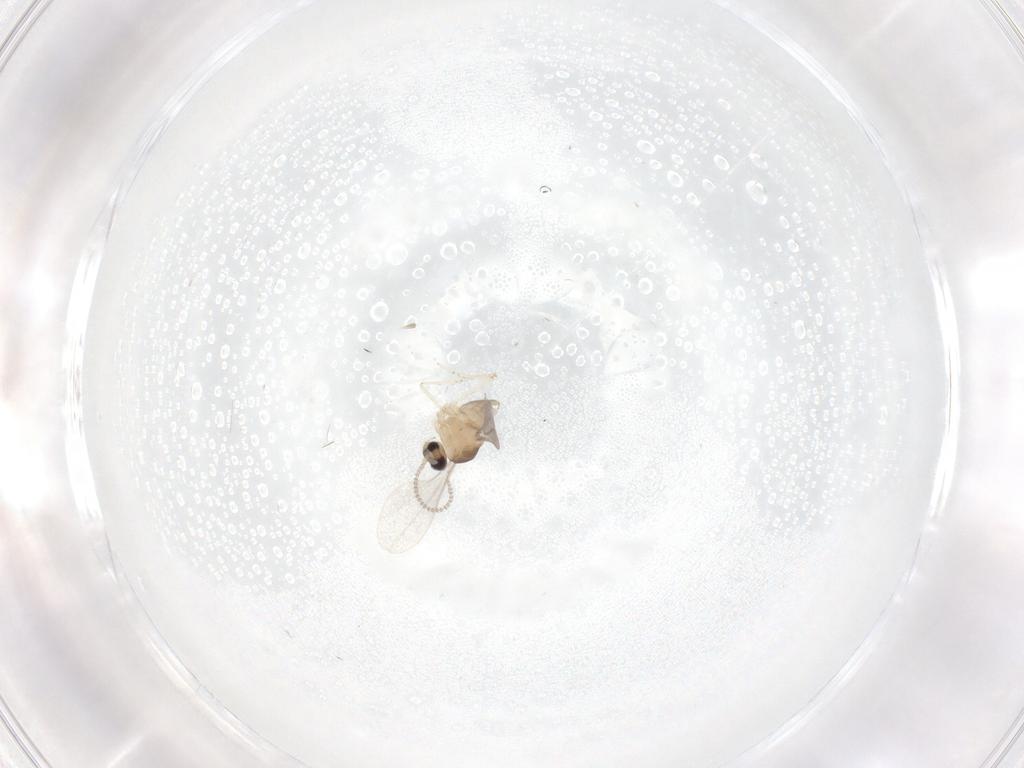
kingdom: Animalia
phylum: Arthropoda
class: Insecta
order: Diptera
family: Cecidomyiidae
